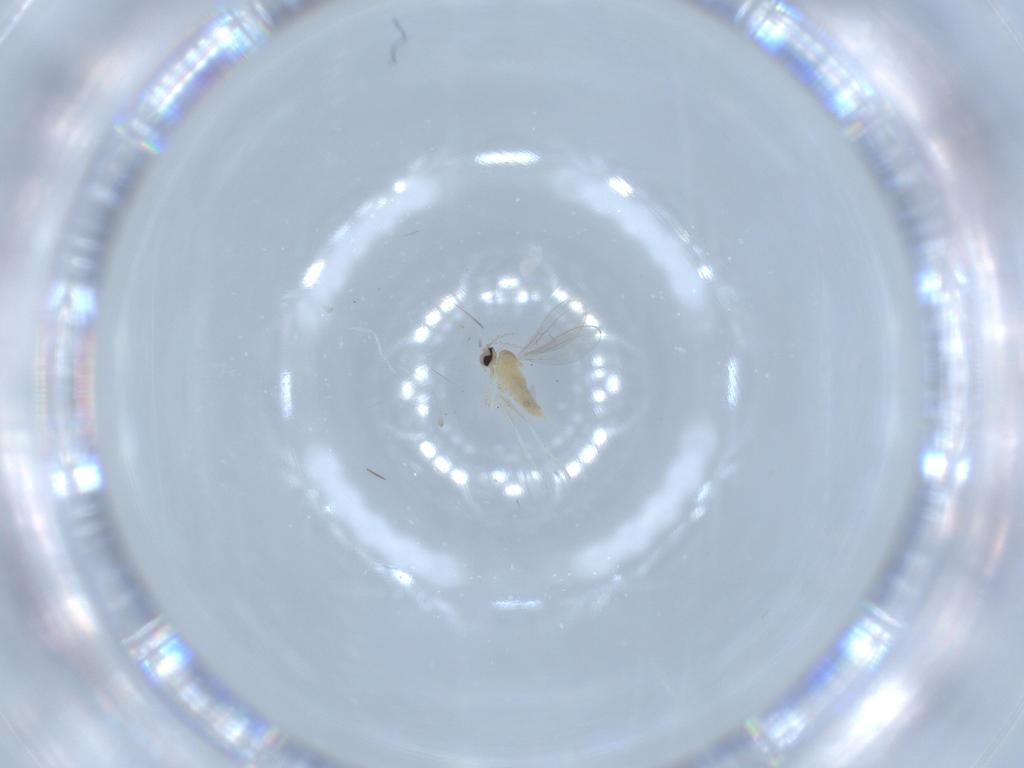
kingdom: Animalia
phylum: Arthropoda
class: Insecta
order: Diptera
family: Cecidomyiidae
